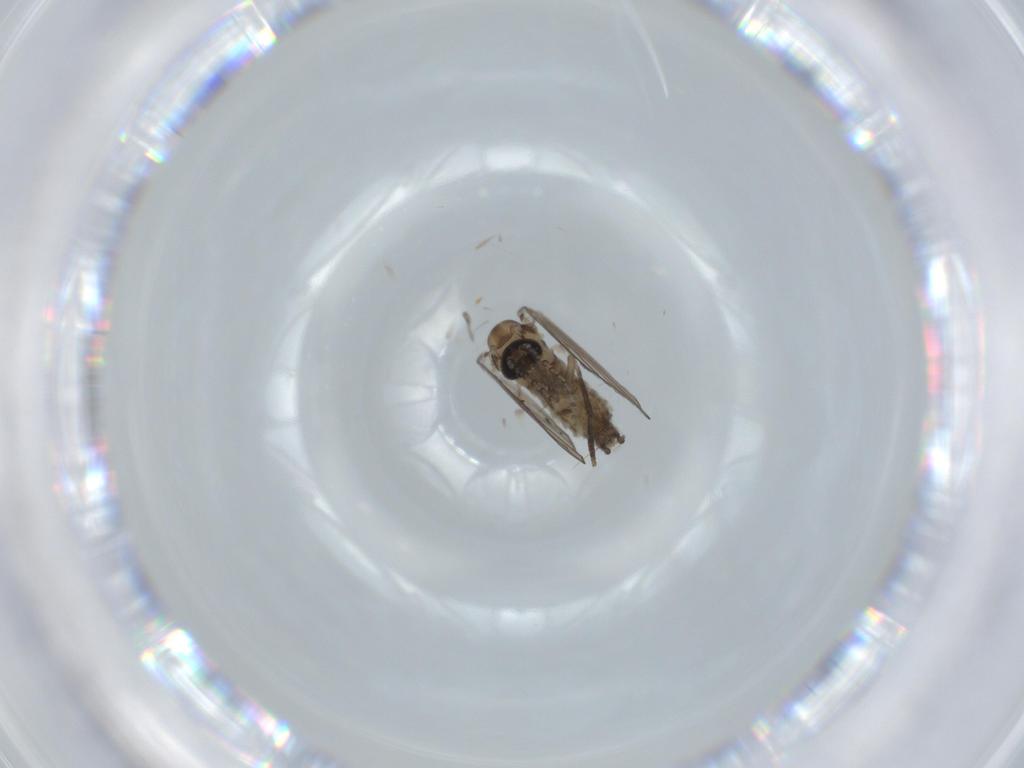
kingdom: Animalia
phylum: Arthropoda
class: Insecta
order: Diptera
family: Psychodidae
